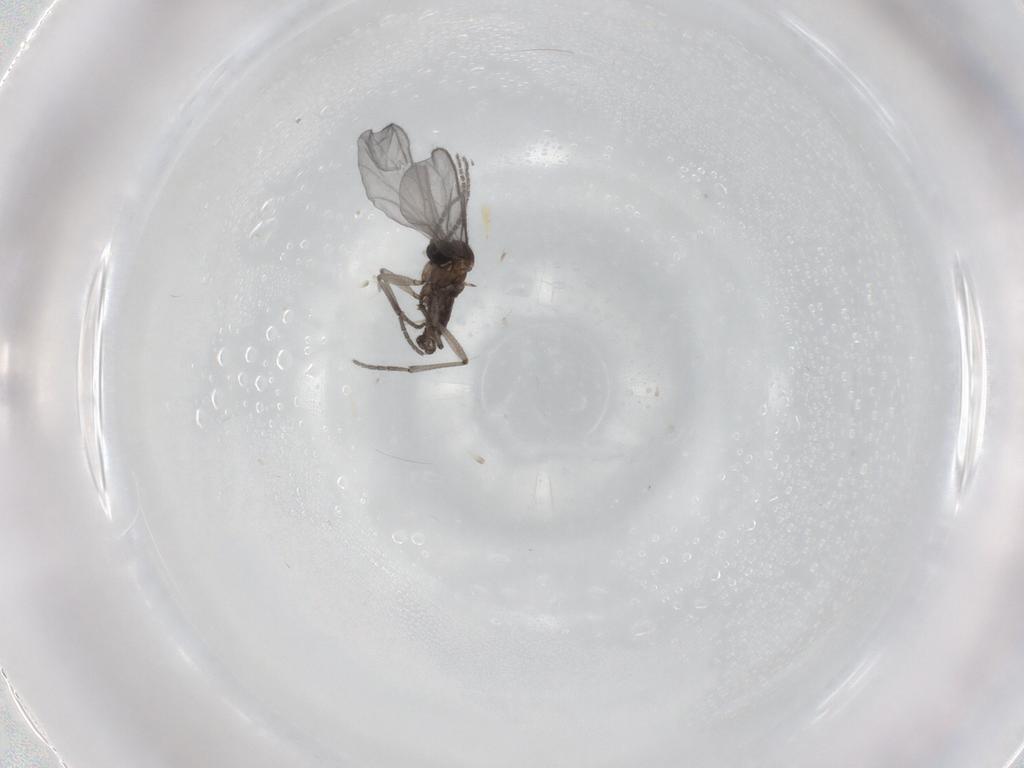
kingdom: Animalia
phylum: Arthropoda
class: Insecta
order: Diptera
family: Sciaridae
